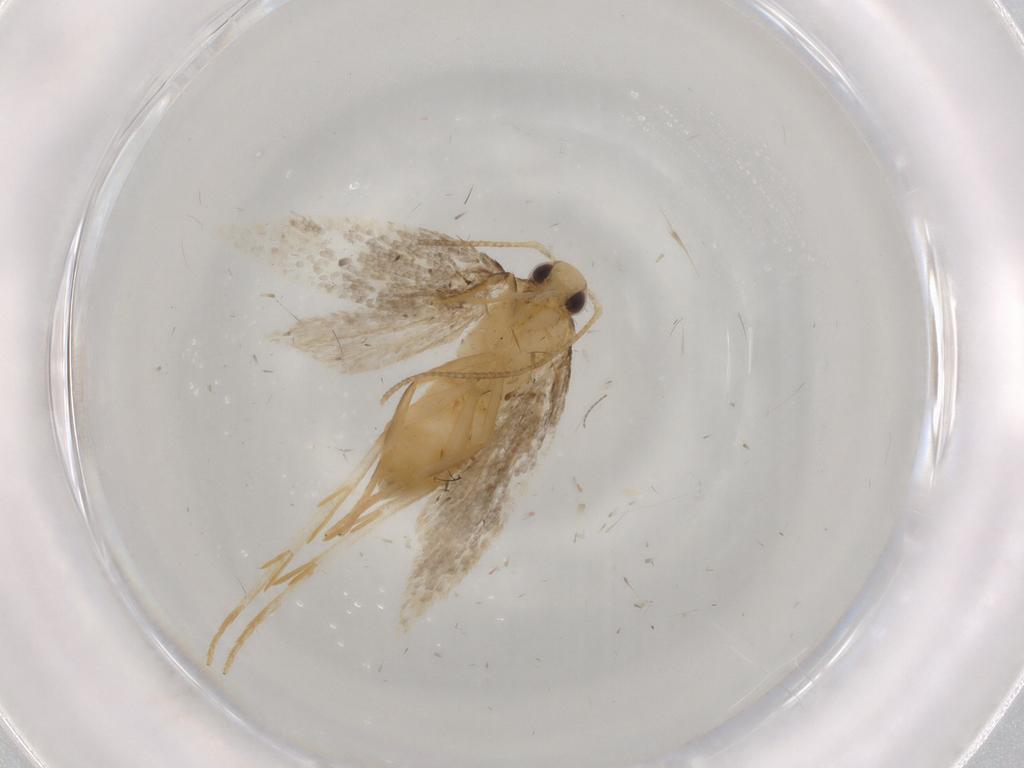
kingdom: Animalia
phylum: Arthropoda
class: Insecta
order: Lepidoptera
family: Gelechiidae
